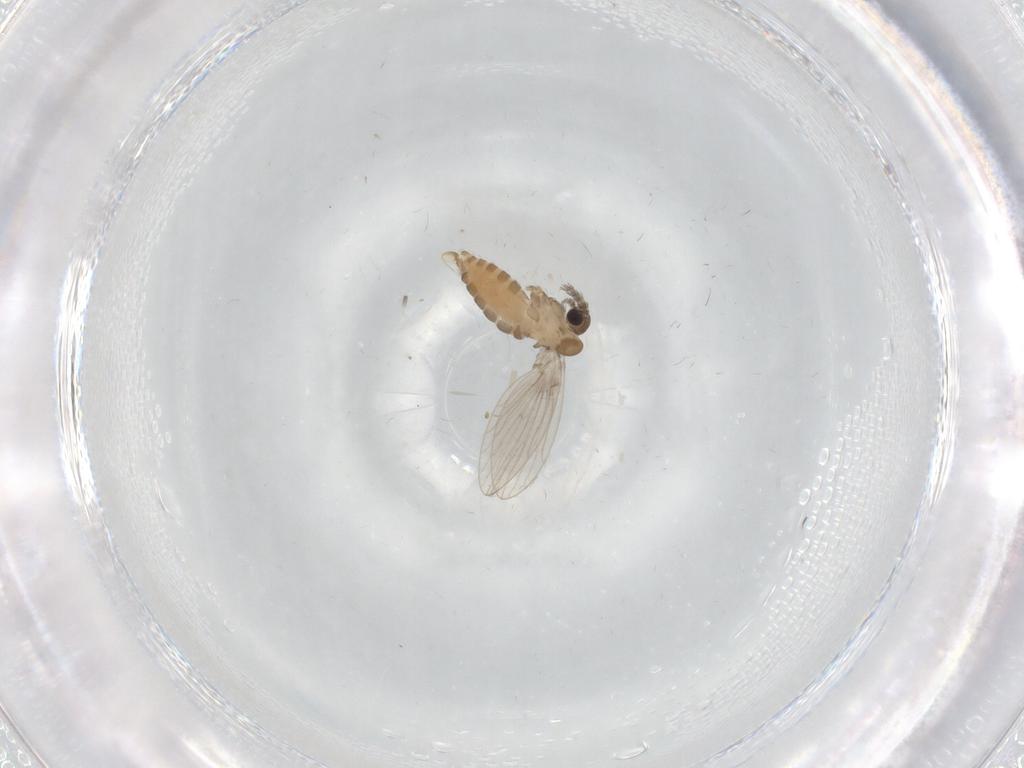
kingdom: Animalia
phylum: Arthropoda
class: Insecta
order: Diptera
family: Psychodidae
